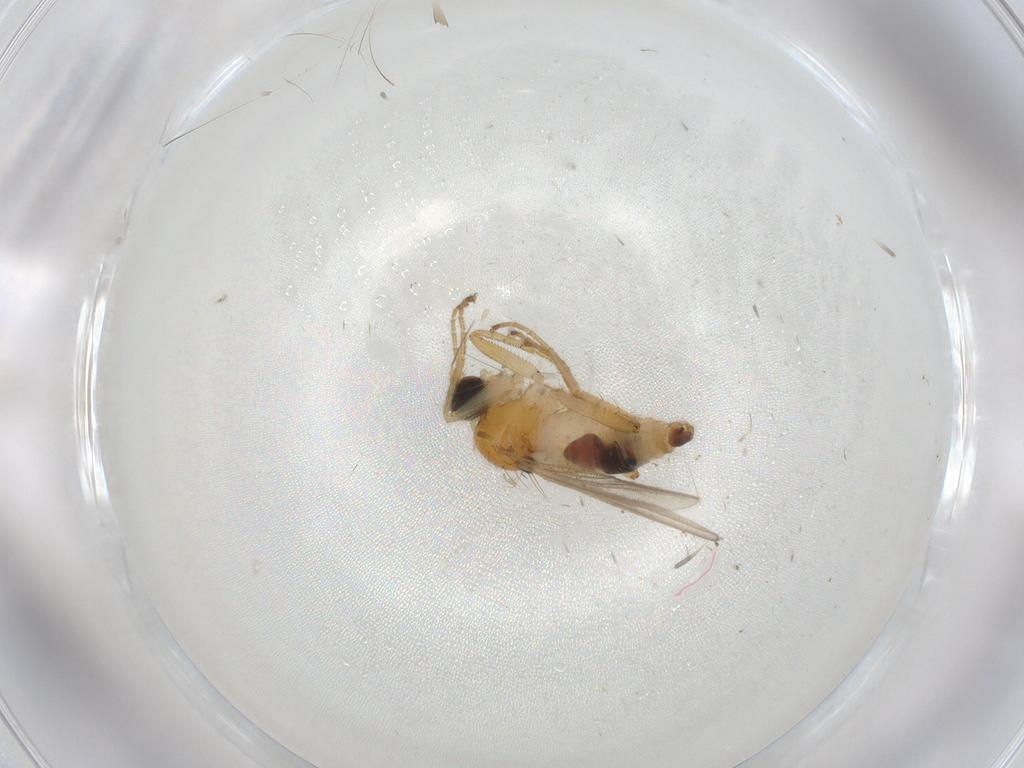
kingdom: Animalia
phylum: Arthropoda
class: Insecta
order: Diptera
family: Hybotidae
